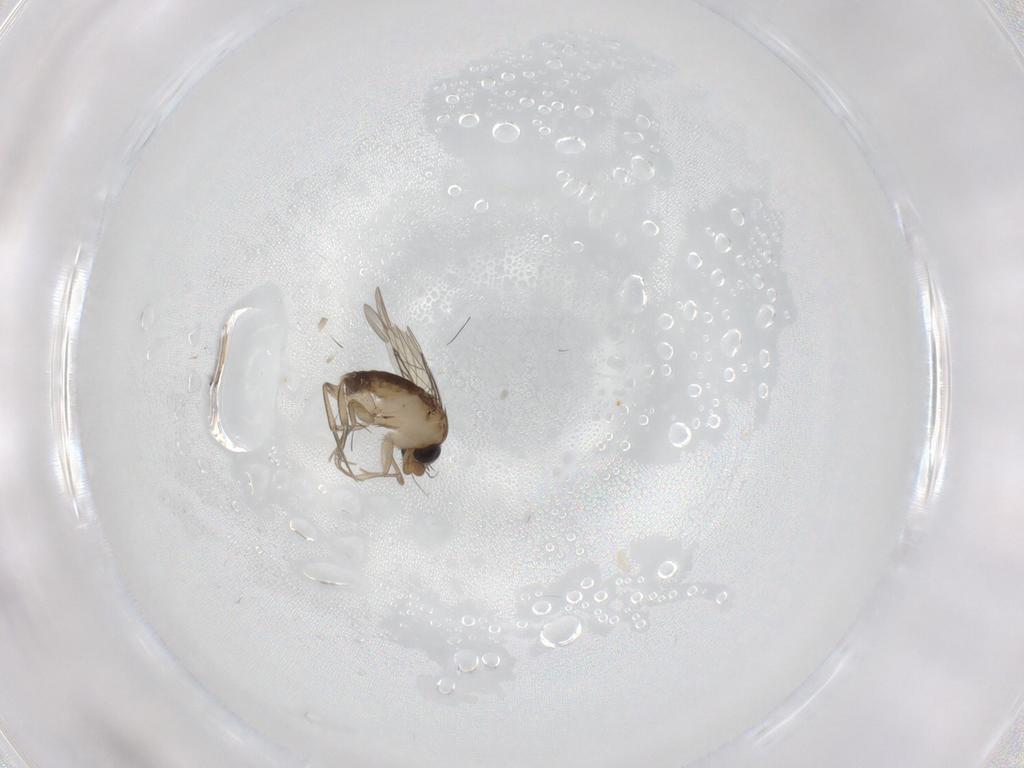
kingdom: Animalia
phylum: Arthropoda
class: Insecta
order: Diptera
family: Phoridae
